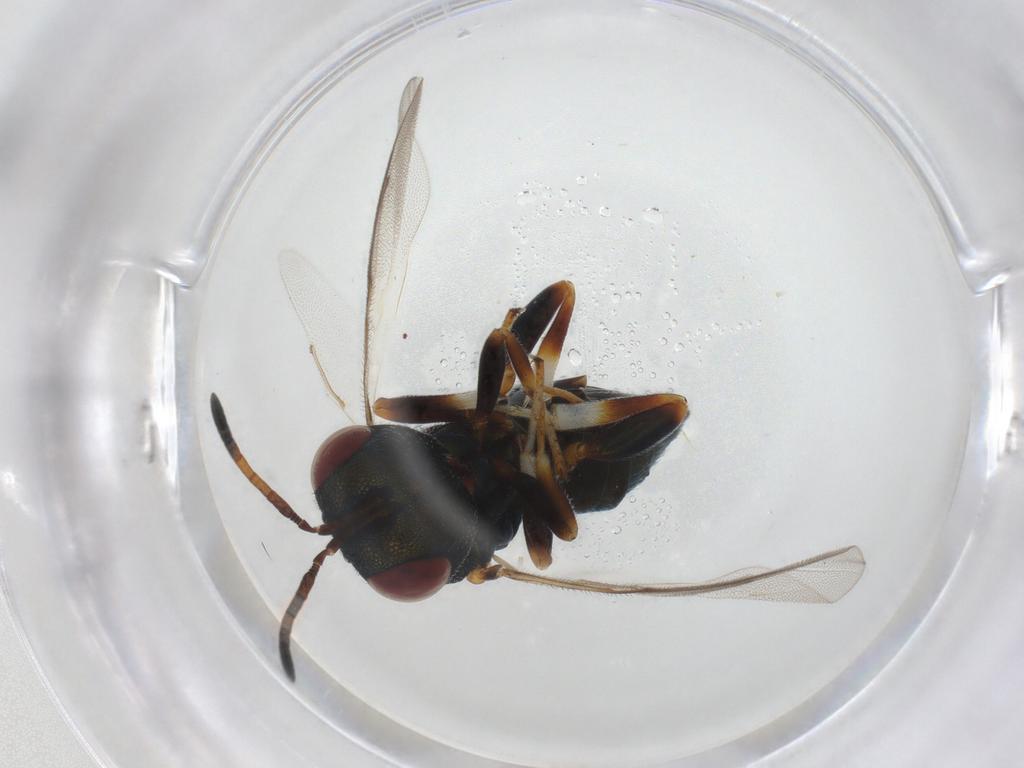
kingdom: Animalia
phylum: Arthropoda
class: Insecta
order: Hymenoptera
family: Pteromalidae
